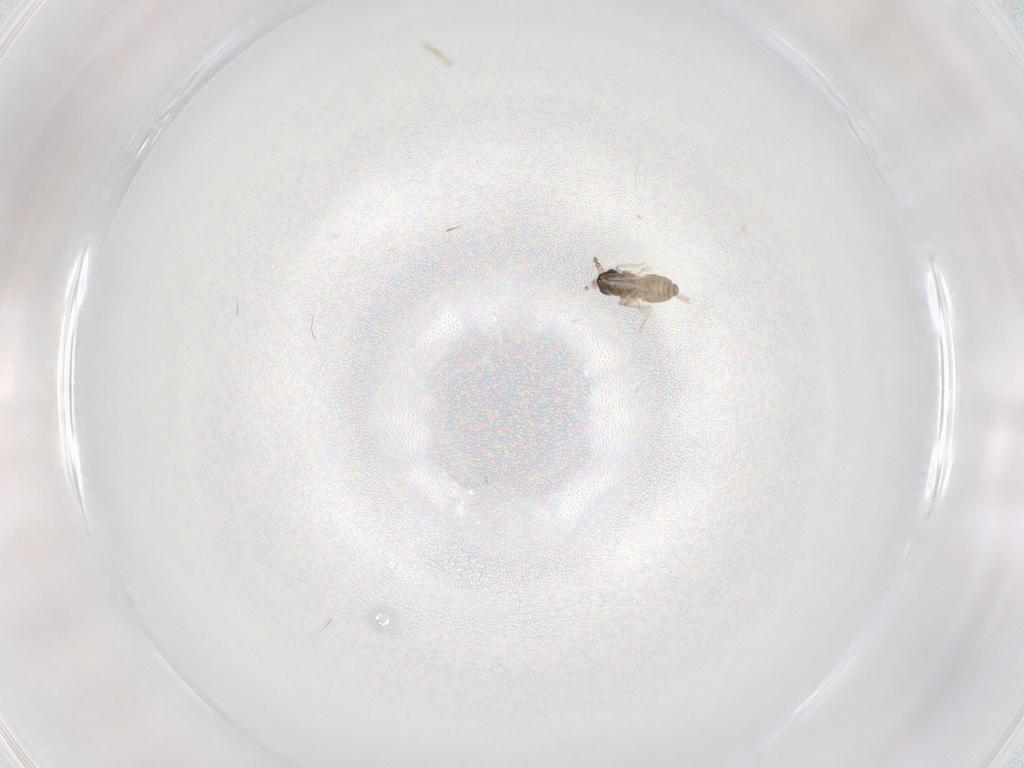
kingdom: Animalia
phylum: Arthropoda
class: Insecta
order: Diptera
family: Cecidomyiidae
